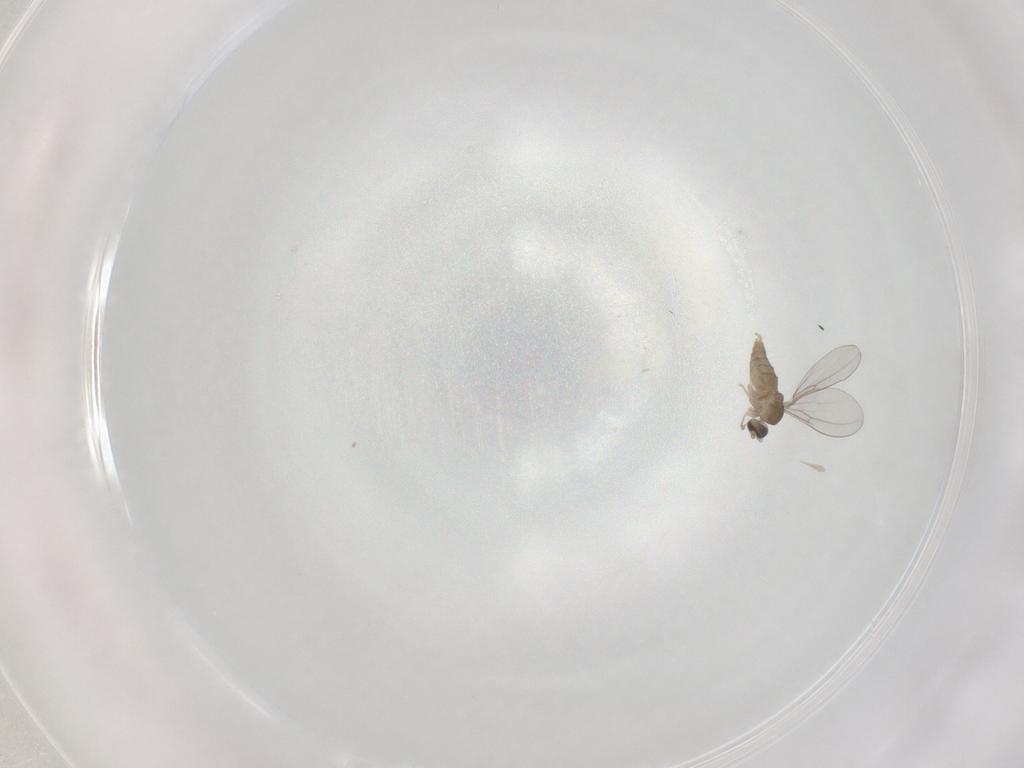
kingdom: Animalia
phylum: Arthropoda
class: Insecta
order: Diptera
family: Cecidomyiidae
